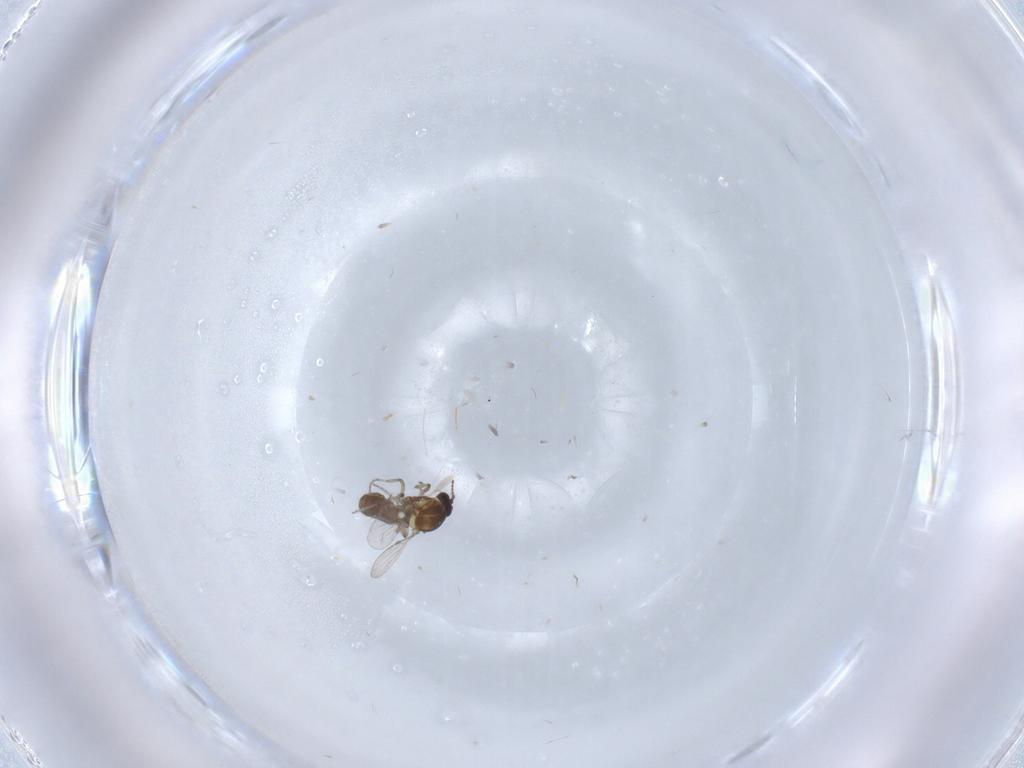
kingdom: Animalia
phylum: Arthropoda
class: Insecta
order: Diptera
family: Ceratopogonidae
